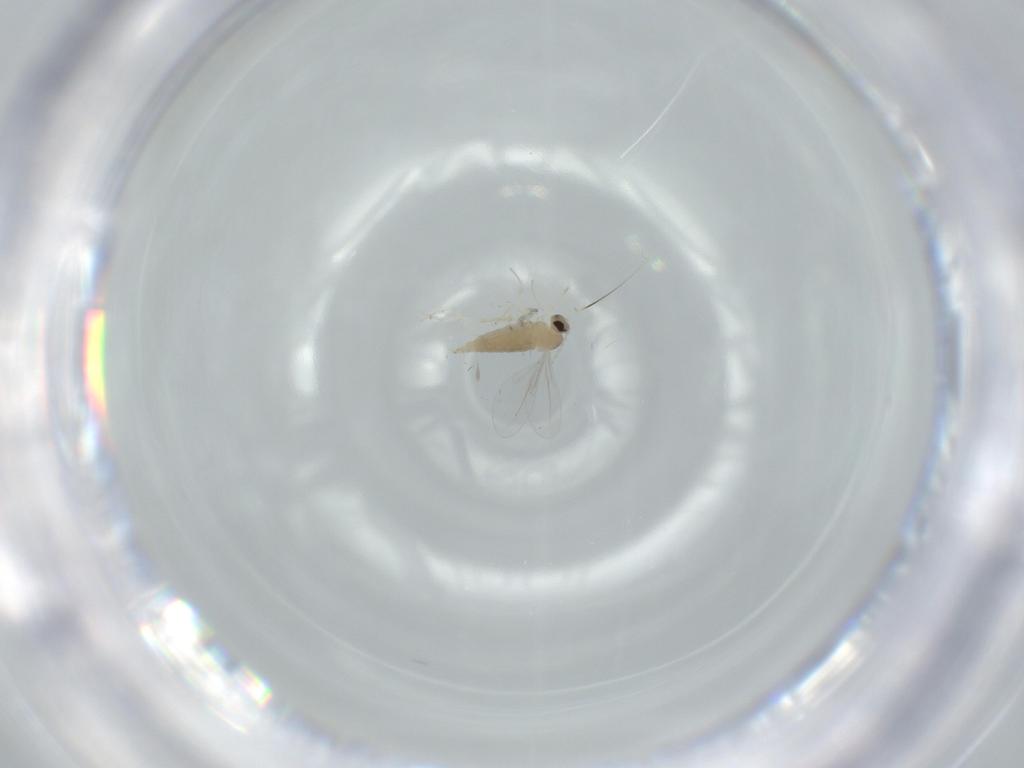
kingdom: Animalia
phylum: Arthropoda
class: Insecta
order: Diptera
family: Cecidomyiidae
